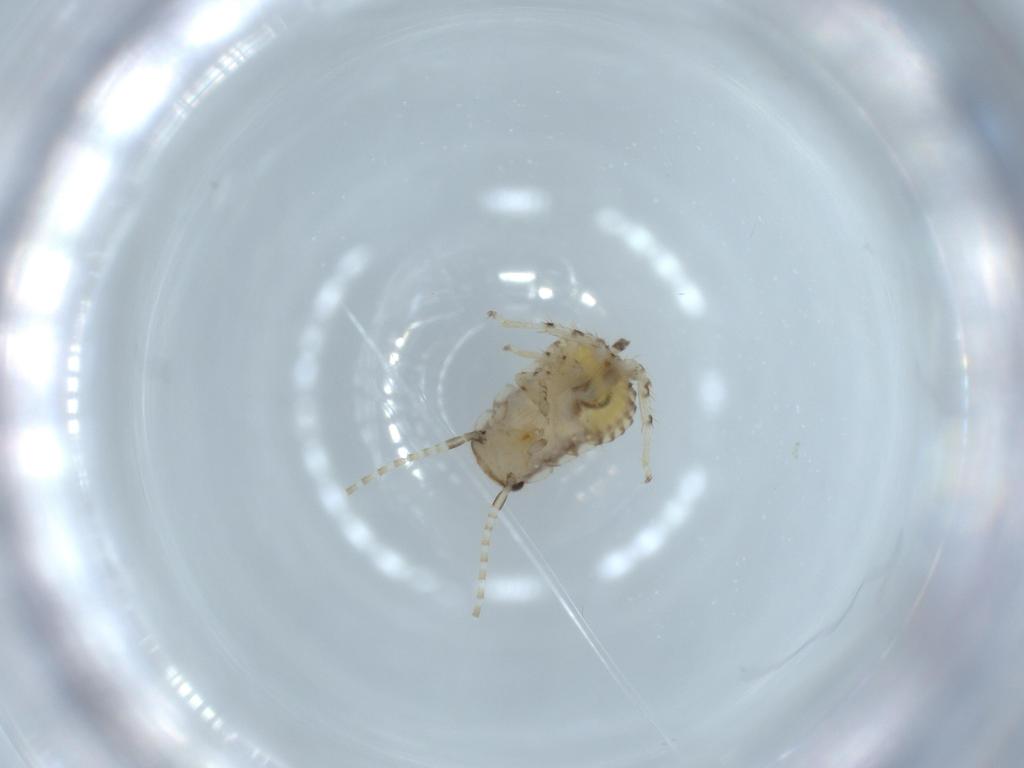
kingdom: Animalia
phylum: Arthropoda
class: Insecta
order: Blattodea
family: Ectobiidae
